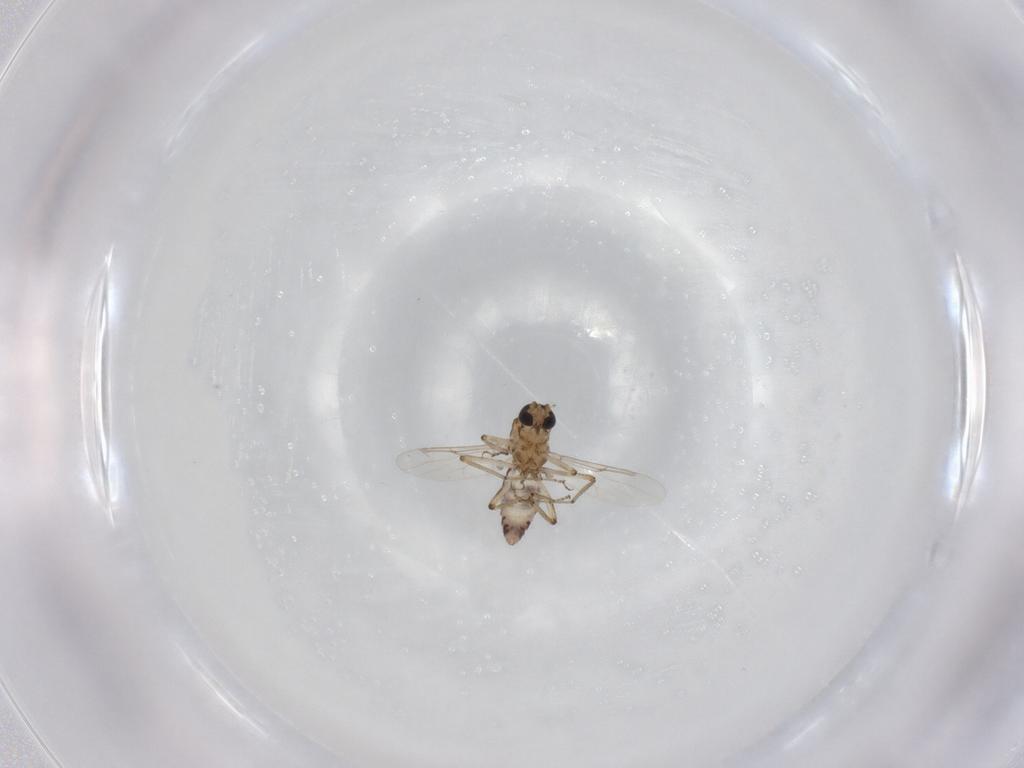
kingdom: Animalia
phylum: Arthropoda
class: Insecta
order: Diptera
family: Ceratopogonidae
